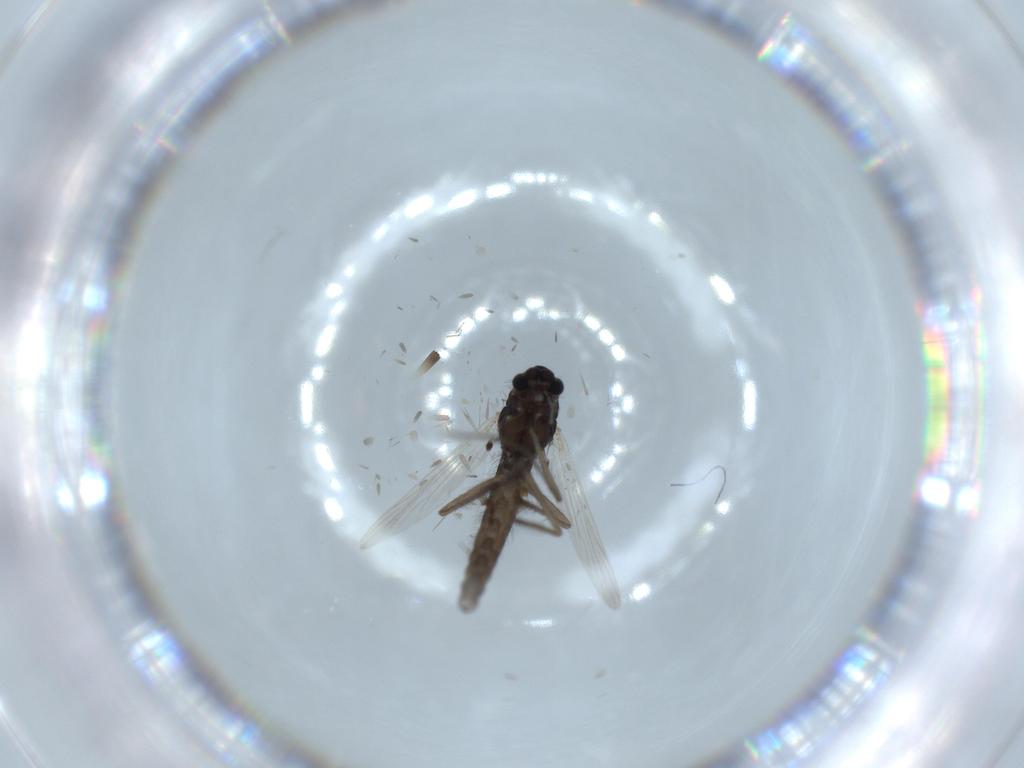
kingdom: Animalia
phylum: Arthropoda
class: Insecta
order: Diptera
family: Chironomidae
